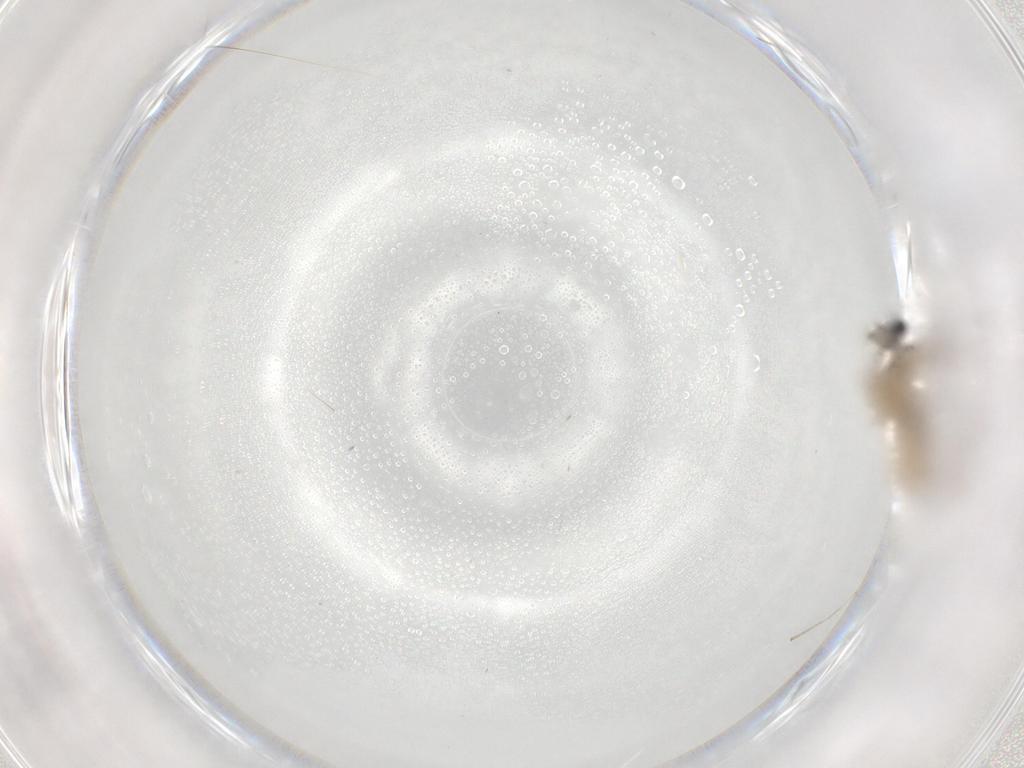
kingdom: Animalia
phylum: Arthropoda
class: Insecta
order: Diptera
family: Cecidomyiidae
